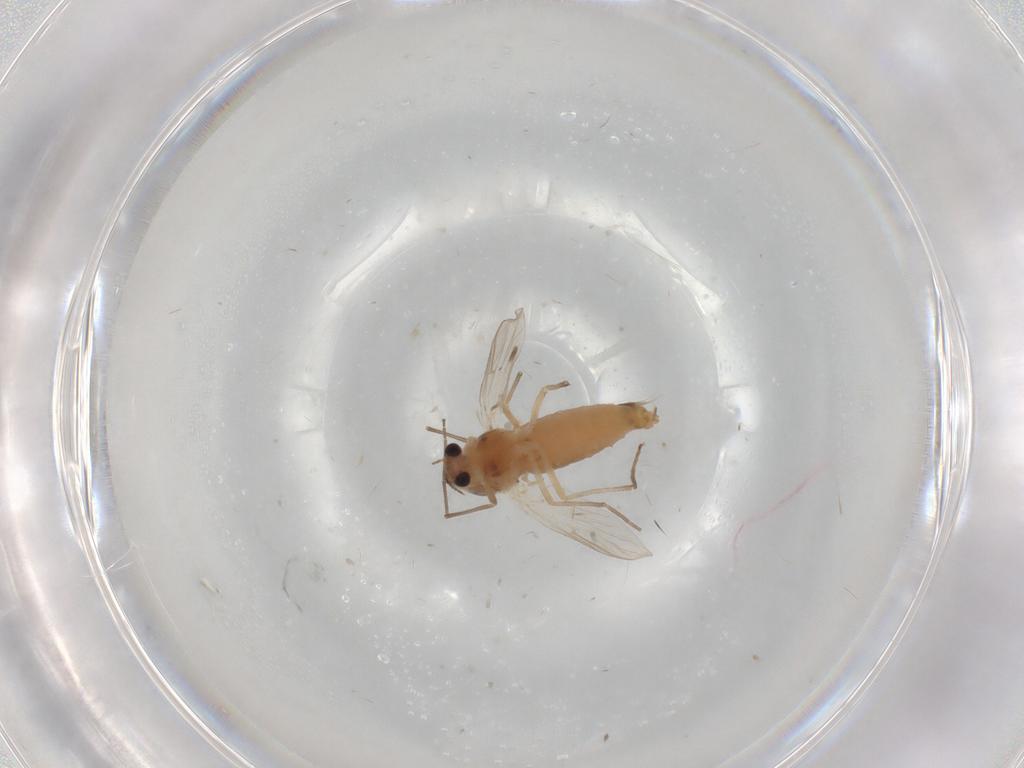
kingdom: Animalia
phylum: Arthropoda
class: Insecta
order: Diptera
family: Chironomidae
